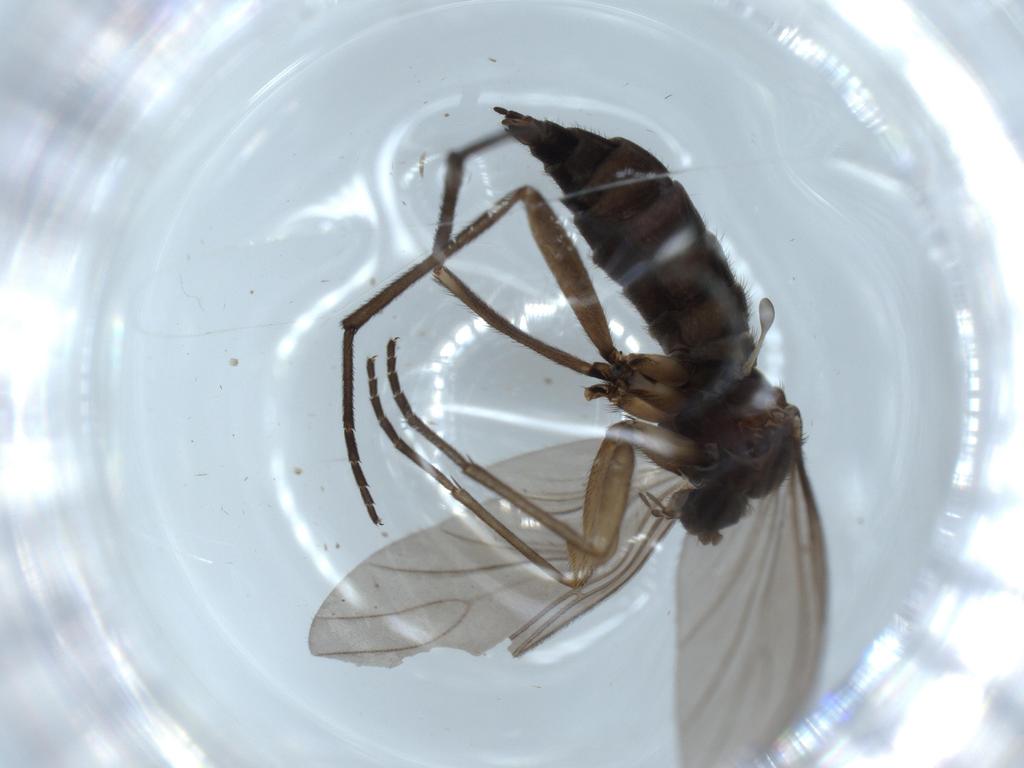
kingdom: Animalia
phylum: Arthropoda
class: Insecta
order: Diptera
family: Sciaridae
